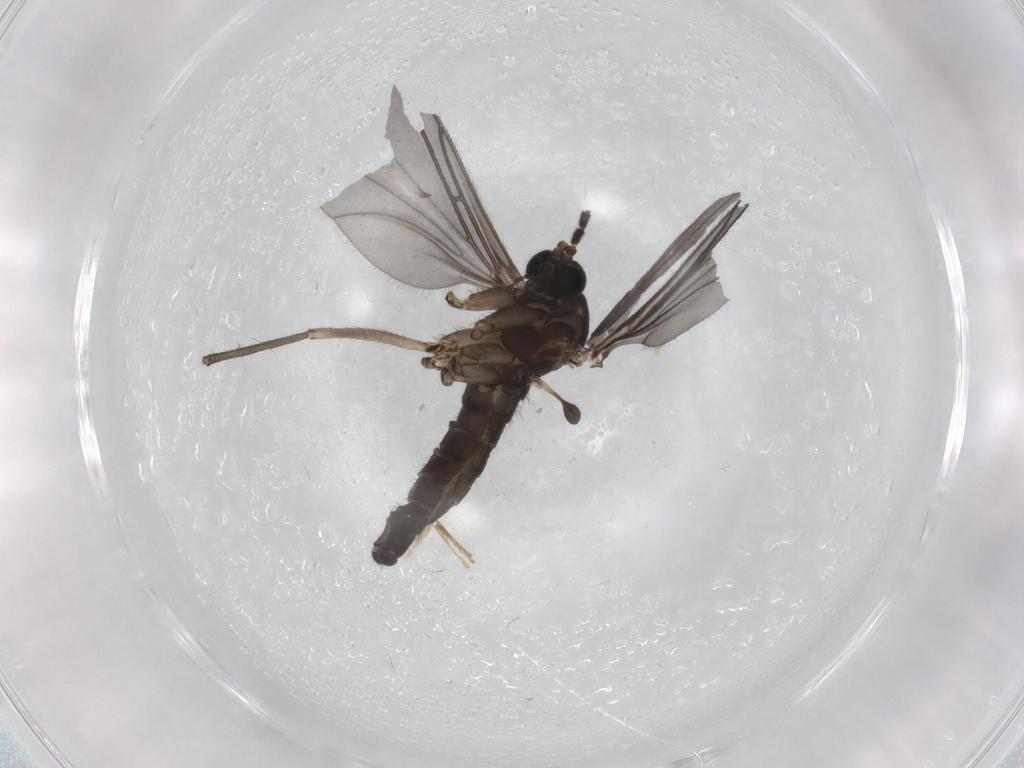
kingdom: Animalia
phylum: Arthropoda
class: Insecta
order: Diptera
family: Sciaridae
